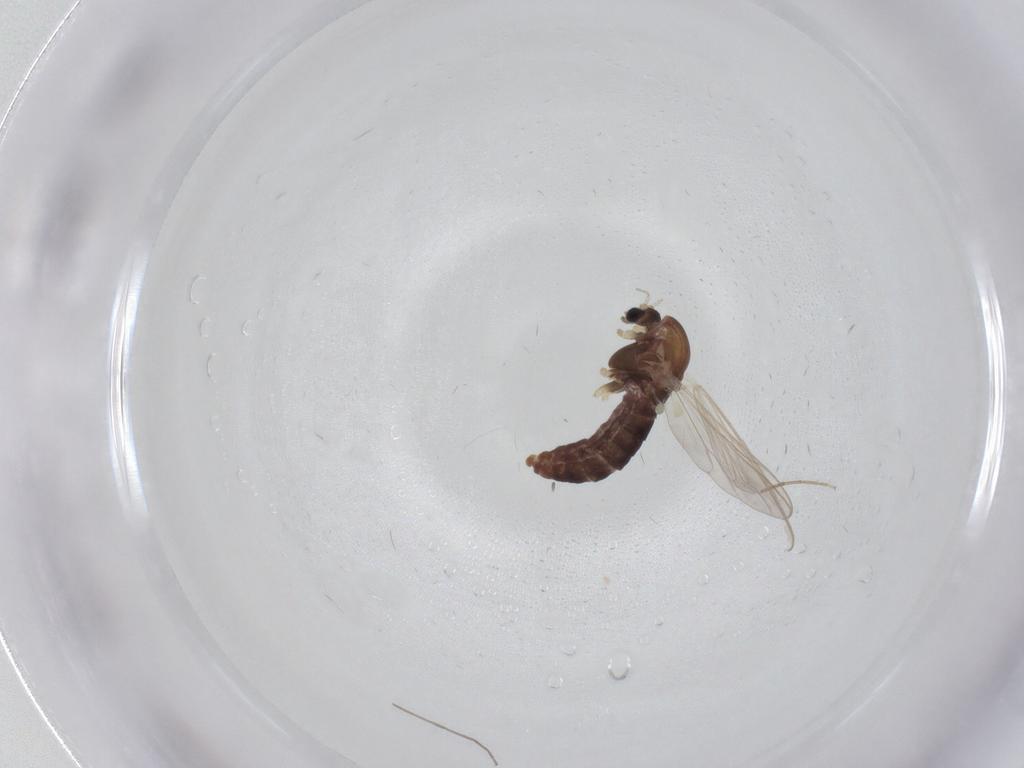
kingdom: Animalia
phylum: Arthropoda
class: Insecta
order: Diptera
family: Chironomidae
